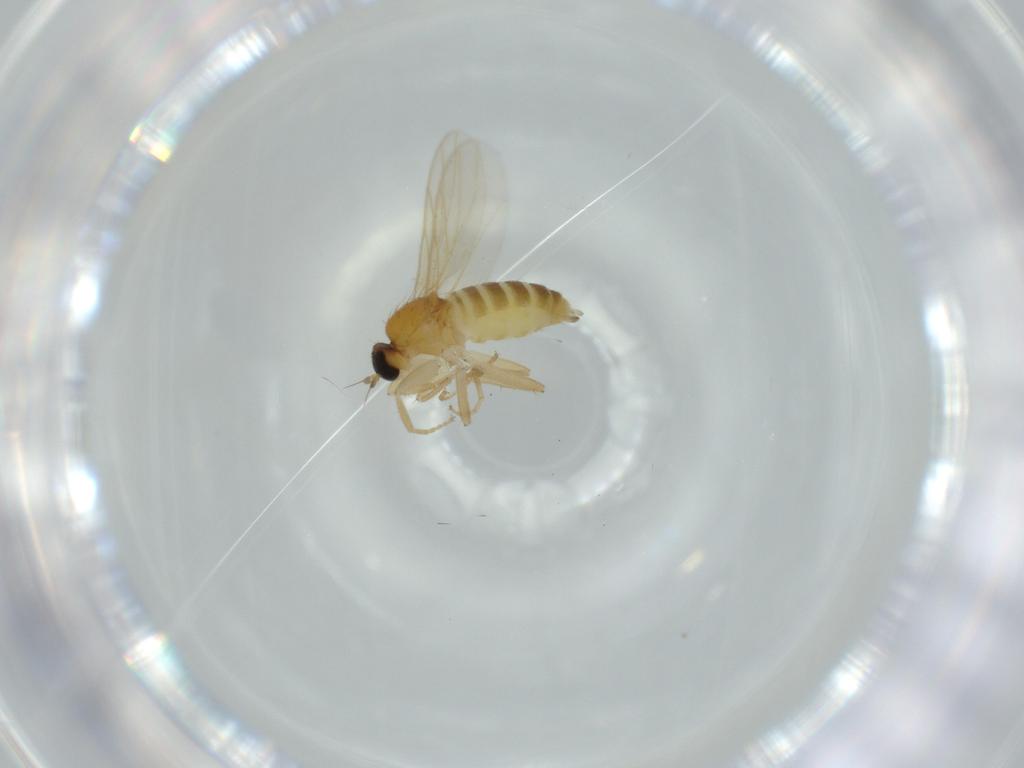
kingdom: Animalia
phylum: Arthropoda
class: Insecta
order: Diptera
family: Hybotidae
